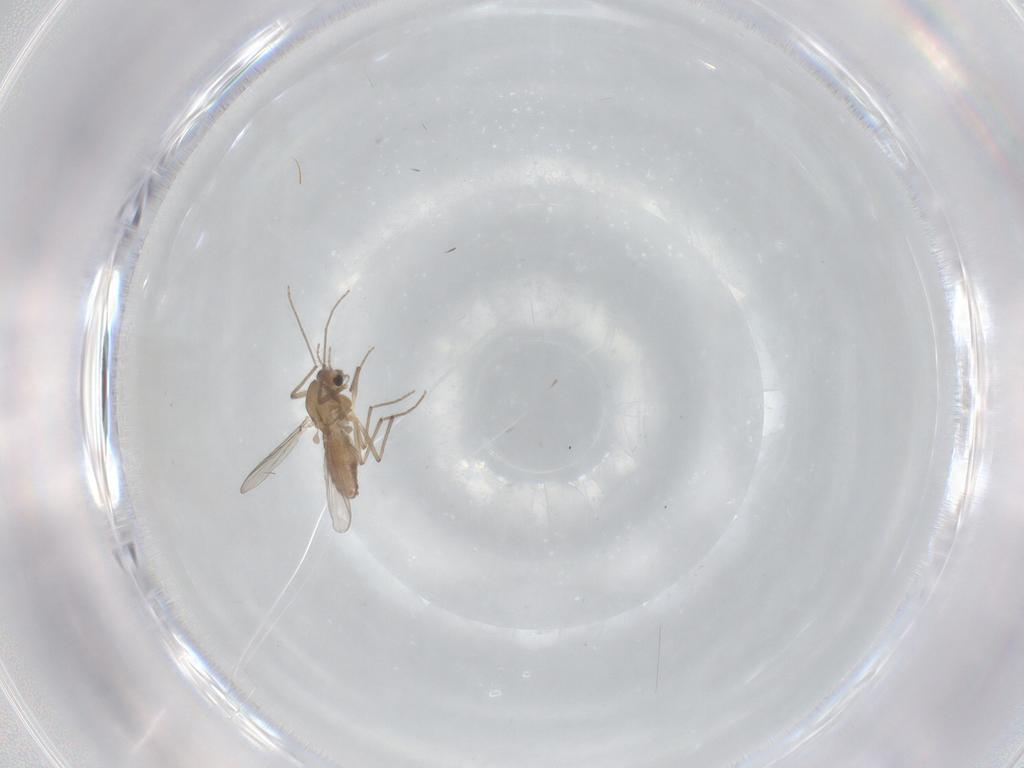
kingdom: Animalia
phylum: Arthropoda
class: Insecta
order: Diptera
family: Chironomidae
